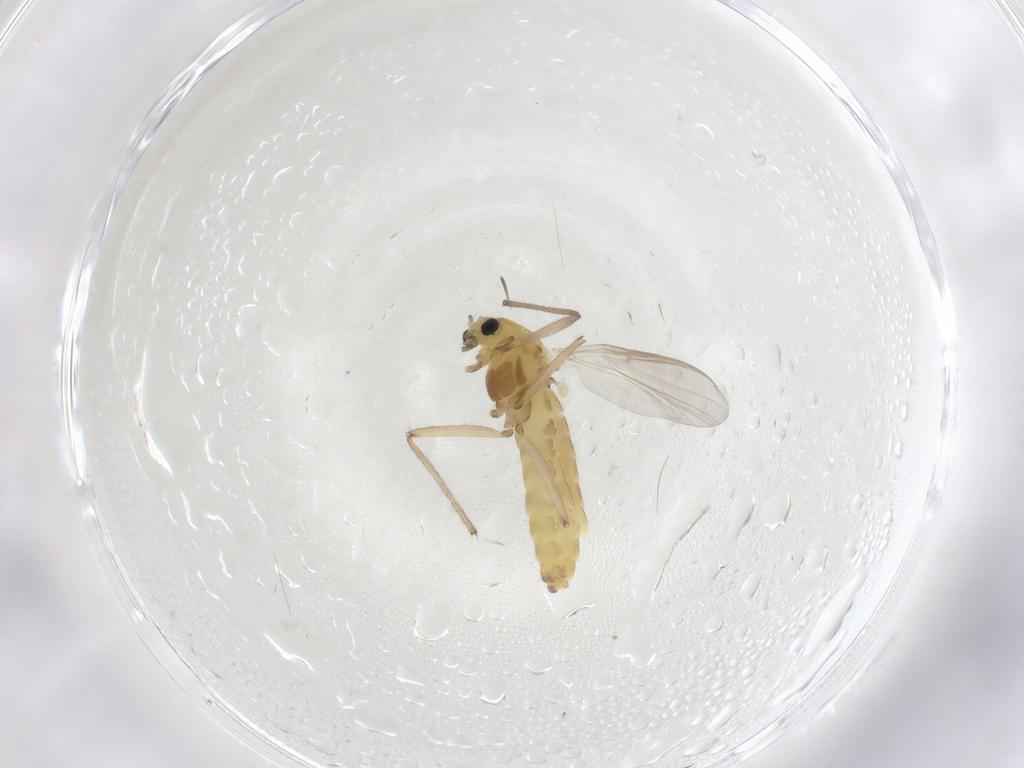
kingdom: Animalia
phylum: Arthropoda
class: Insecta
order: Diptera
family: Chironomidae
